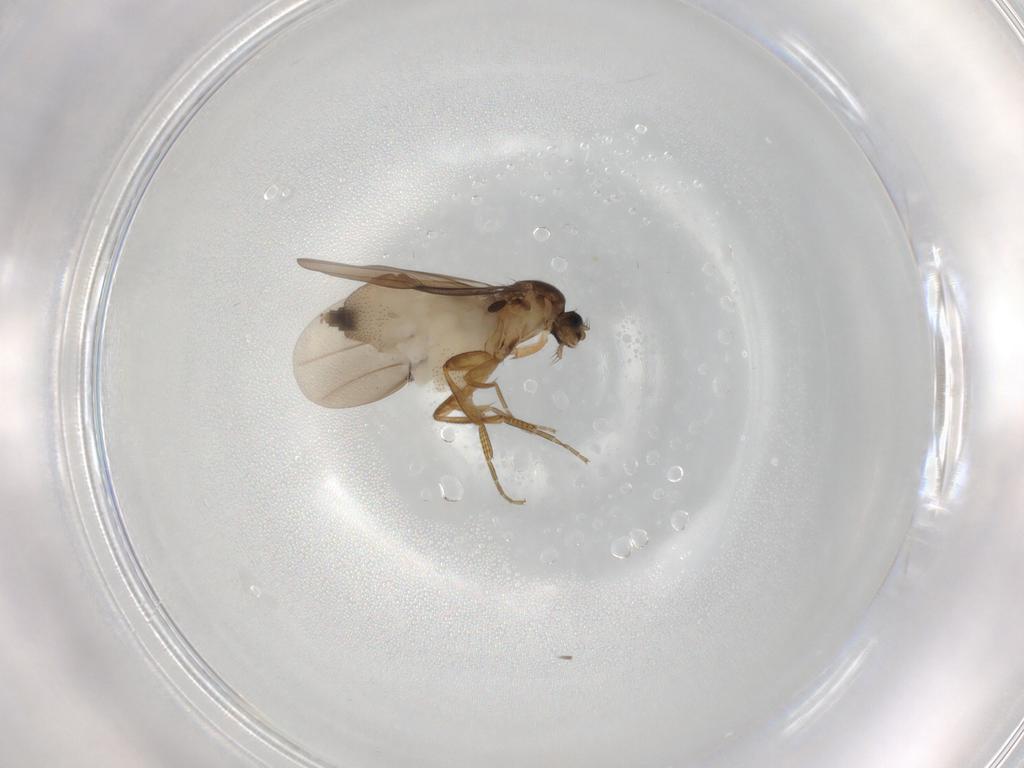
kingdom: Animalia
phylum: Arthropoda
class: Insecta
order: Diptera
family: Phoridae
